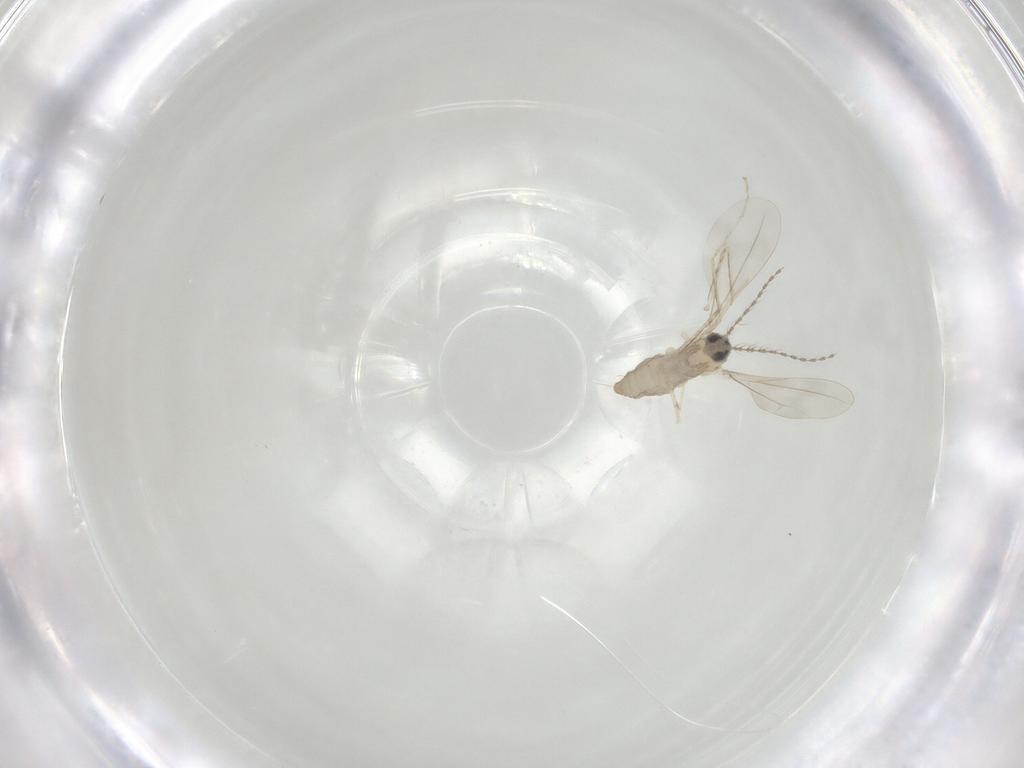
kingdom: Animalia
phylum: Arthropoda
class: Insecta
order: Diptera
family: Cecidomyiidae
